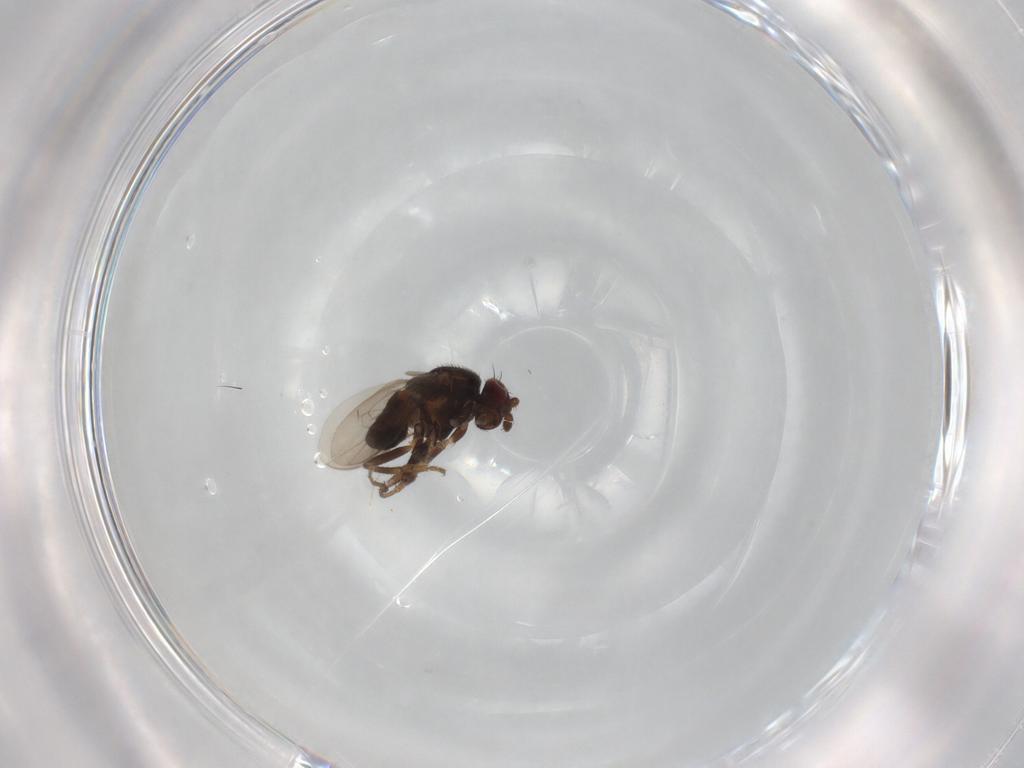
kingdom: Animalia
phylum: Arthropoda
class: Insecta
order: Diptera
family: Sphaeroceridae
